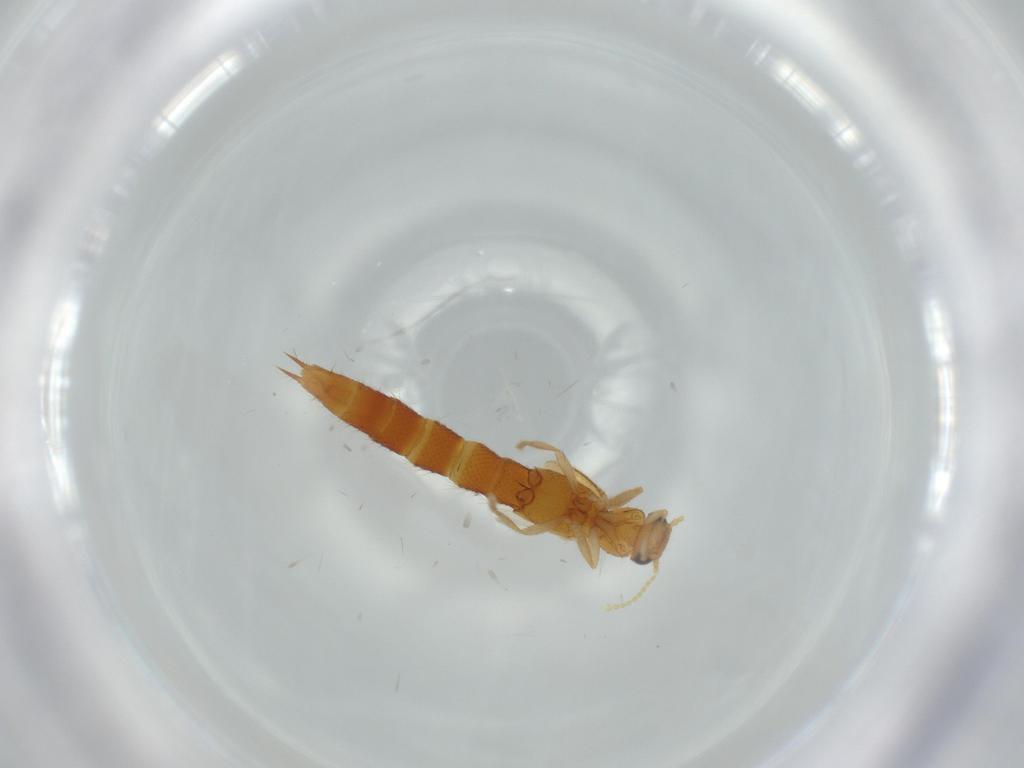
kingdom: Animalia
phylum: Arthropoda
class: Insecta
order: Coleoptera
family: Staphylinidae
